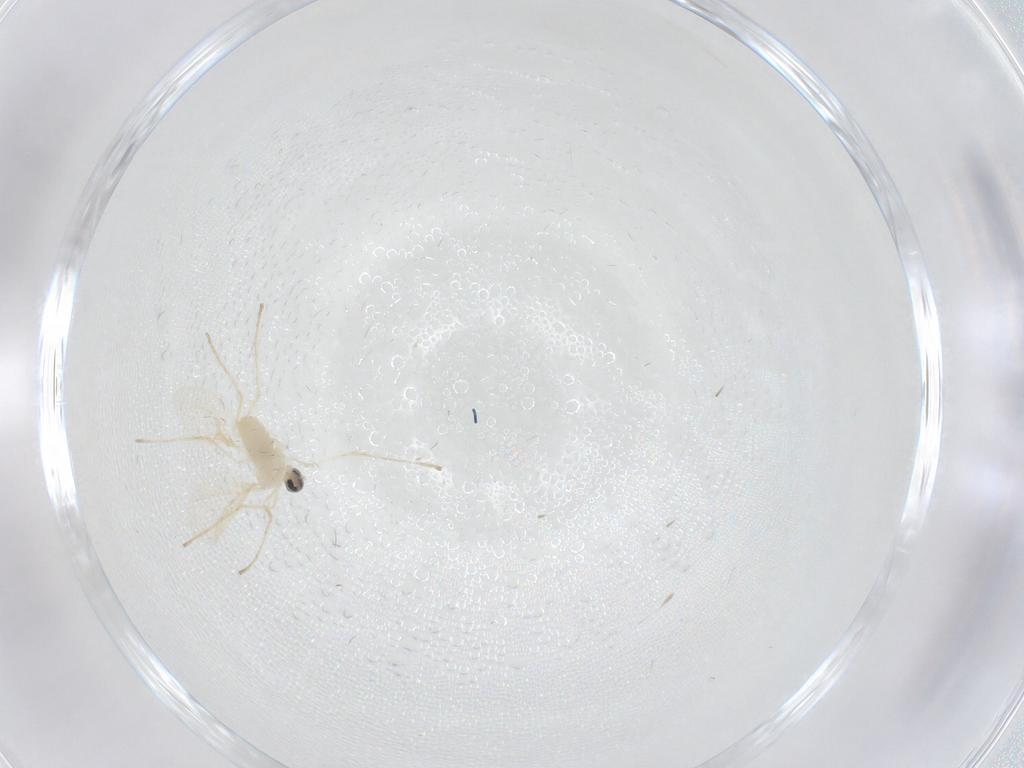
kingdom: Animalia
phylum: Arthropoda
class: Insecta
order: Diptera
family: Cecidomyiidae
